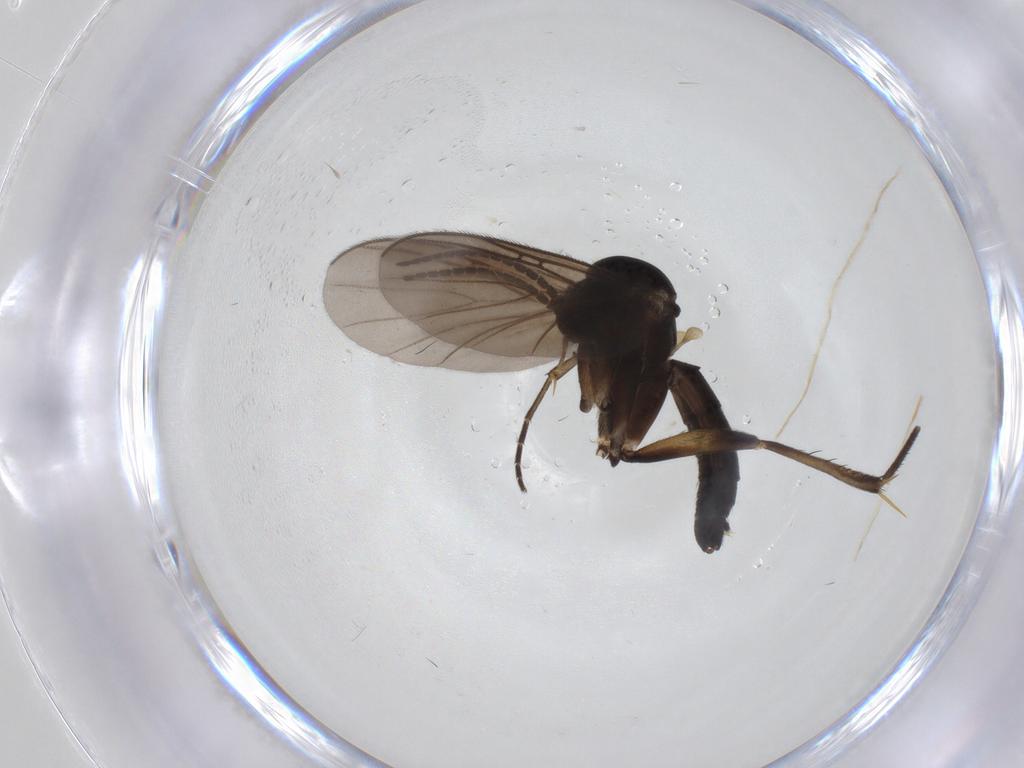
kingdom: Animalia
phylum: Arthropoda
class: Insecta
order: Diptera
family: Mycetophilidae
